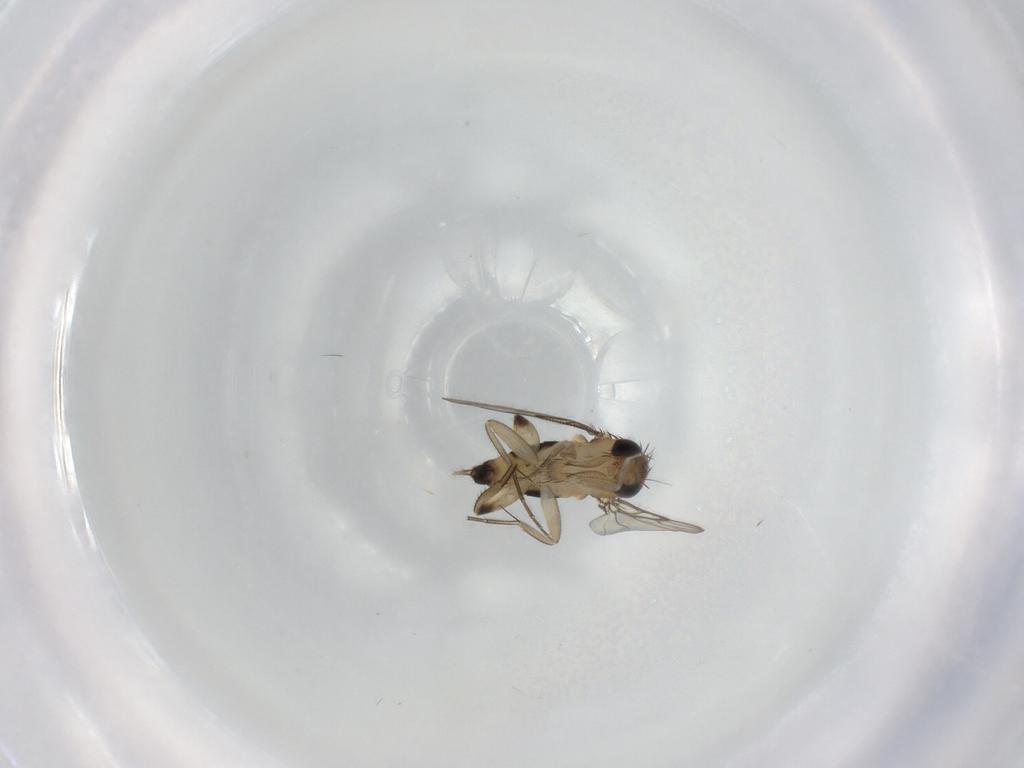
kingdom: Animalia
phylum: Arthropoda
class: Insecta
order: Diptera
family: Phoridae
